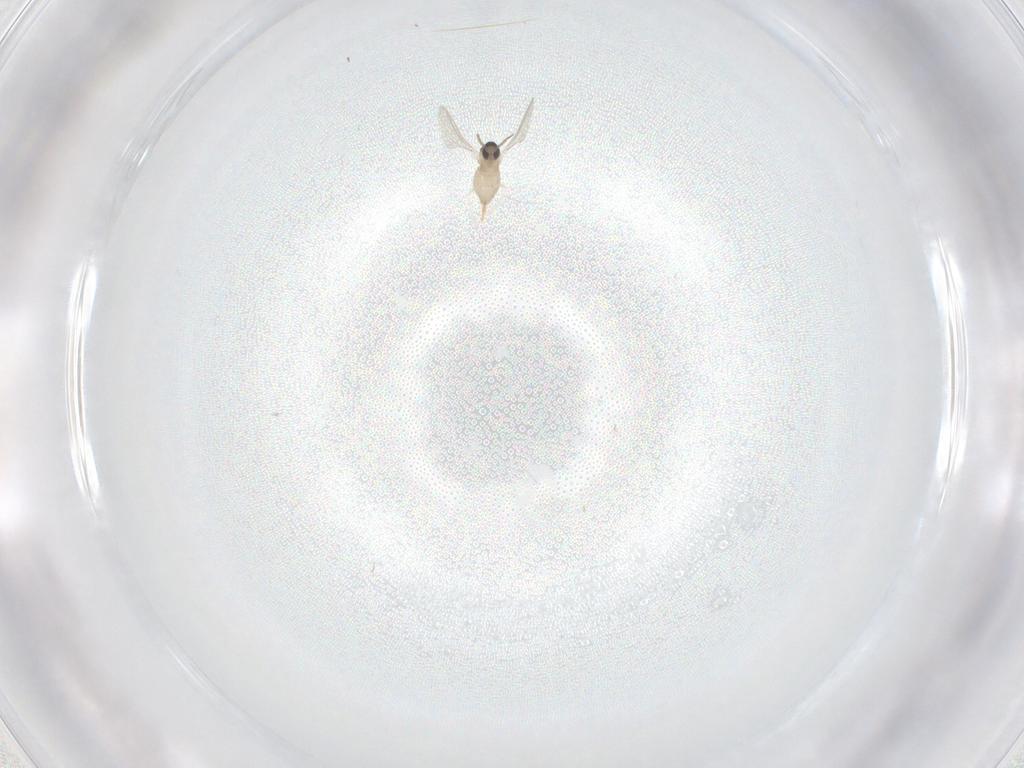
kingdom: Animalia
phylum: Arthropoda
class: Insecta
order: Diptera
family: Cecidomyiidae
